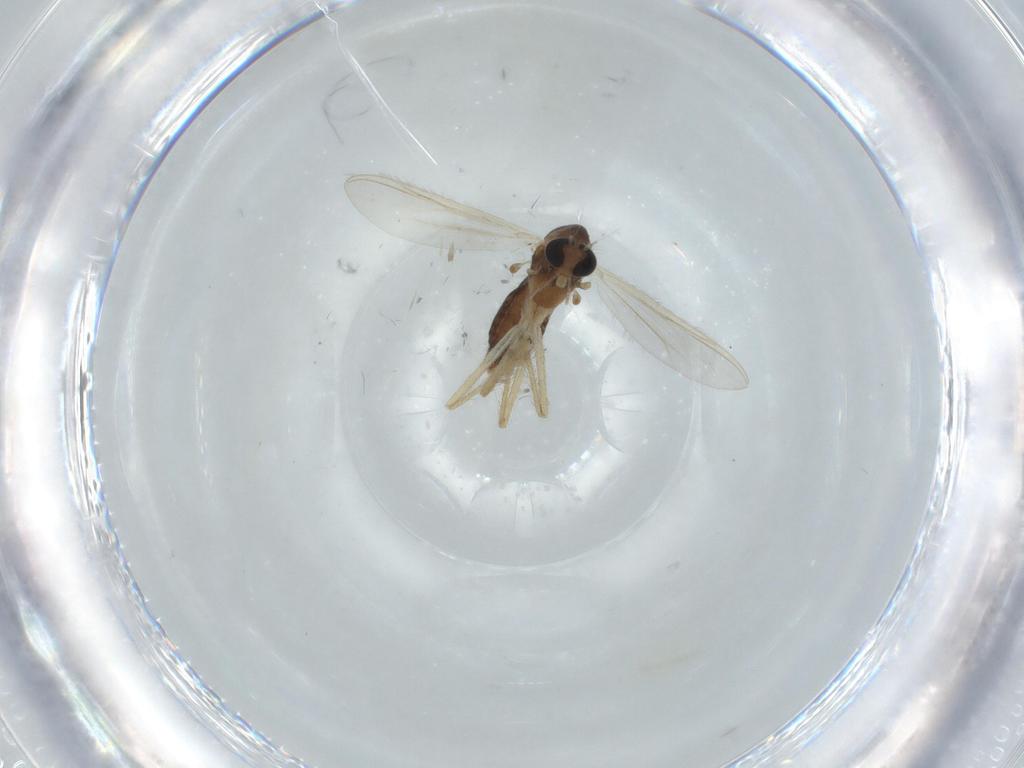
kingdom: Animalia
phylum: Arthropoda
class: Insecta
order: Diptera
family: Chironomidae
